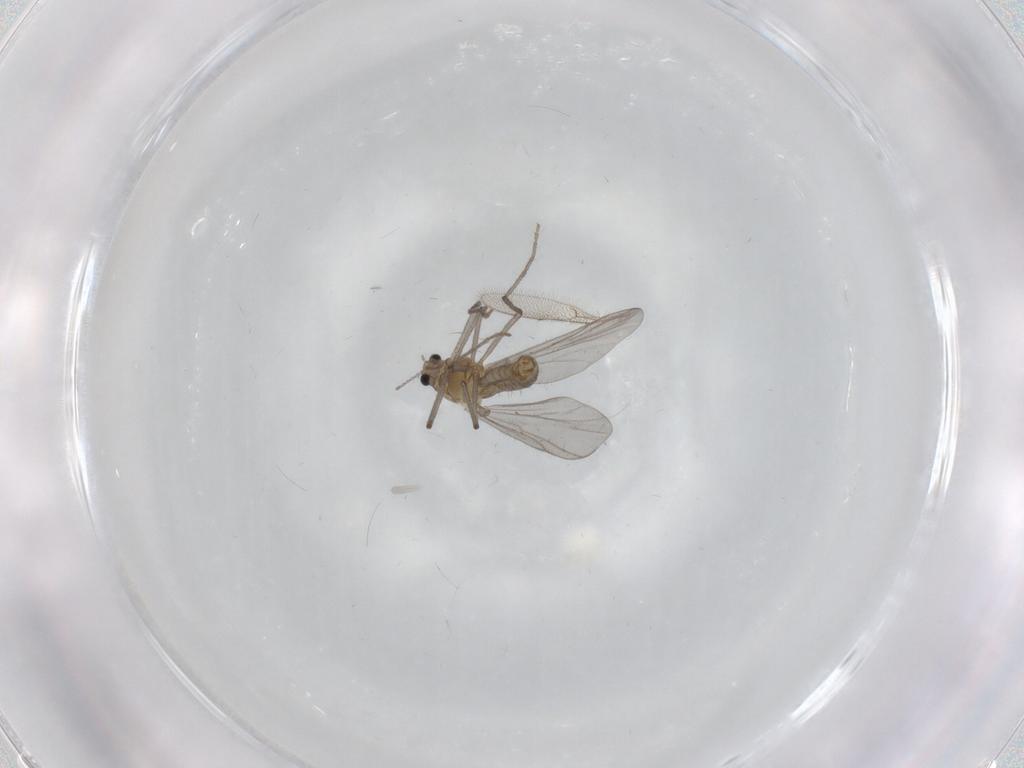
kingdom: Animalia
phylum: Arthropoda
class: Insecta
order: Diptera
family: Chironomidae
